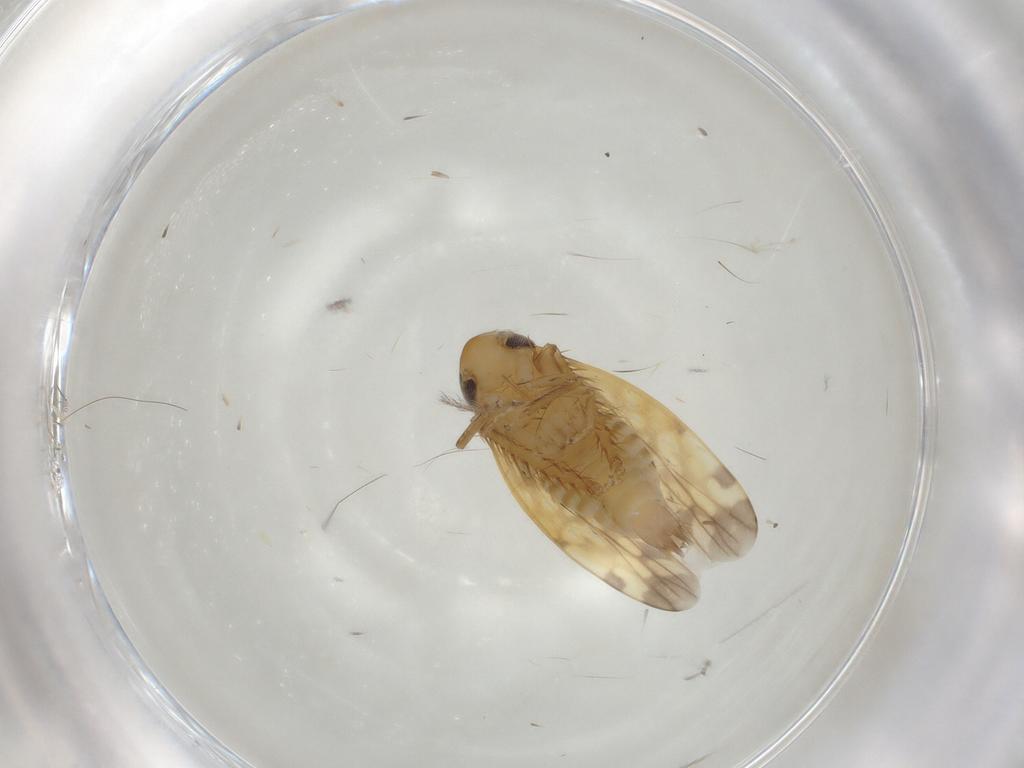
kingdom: Animalia
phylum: Arthropoda
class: Insecta
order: Hemiptera
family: Cicadellidae
